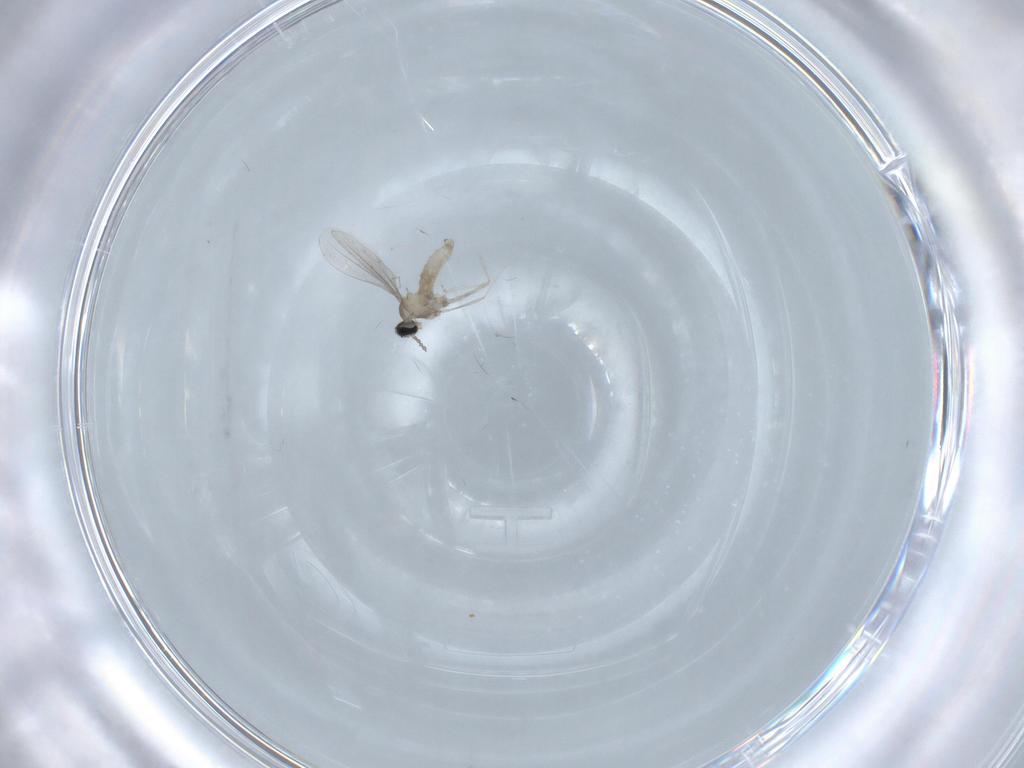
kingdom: Animalia
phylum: Arthropoda
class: Insecta
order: Diptera
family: Cecidomyiidae
